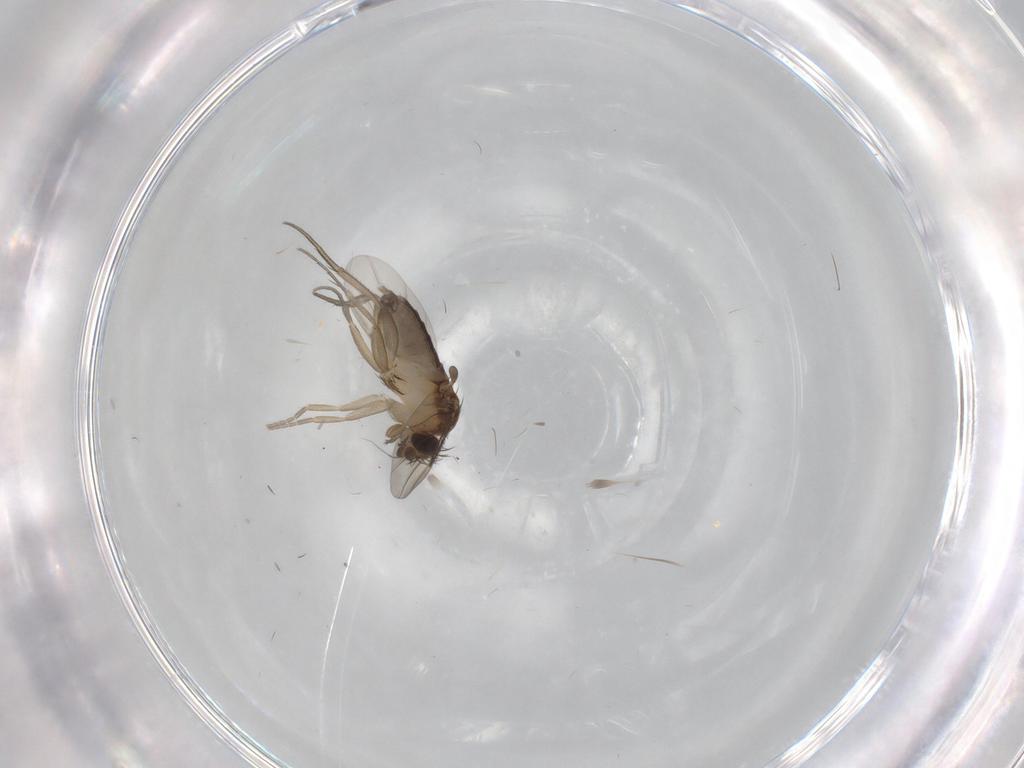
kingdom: Animalia
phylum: Arthropoda
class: Insecta
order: Diptera
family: Phoridae
